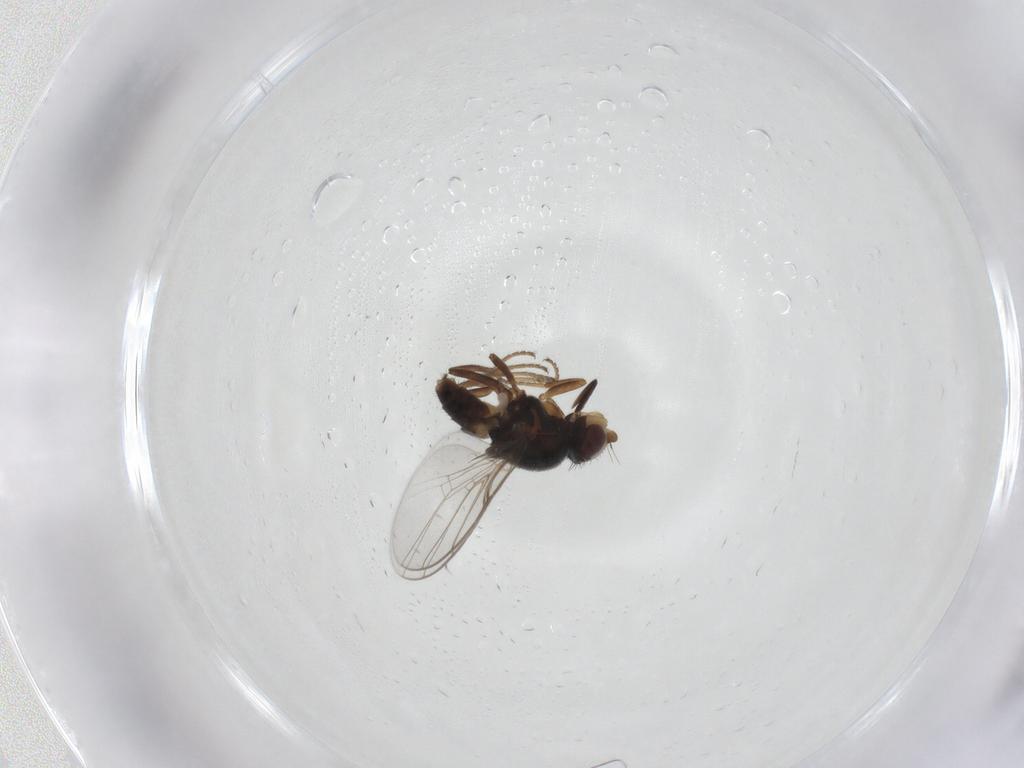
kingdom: Animalia
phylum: Arthropoda
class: Insecta
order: Diptera
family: Chloropidae
